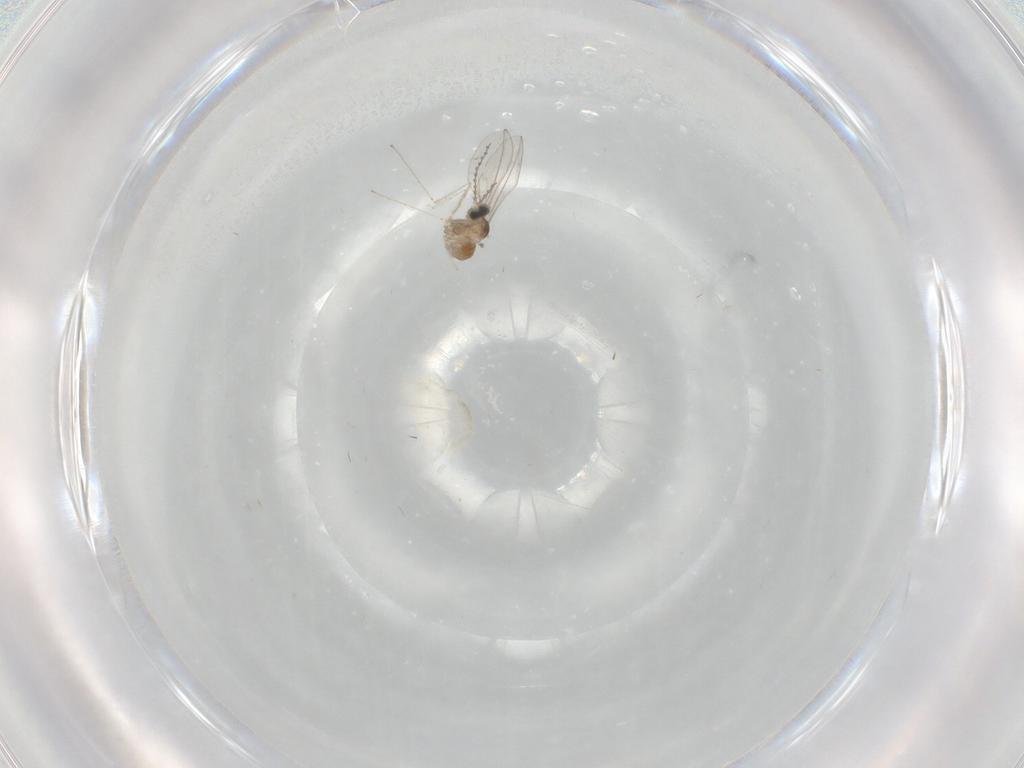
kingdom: Animalia
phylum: Arthropoda
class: Insecta
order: Diptera
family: Cecidomyiidae
